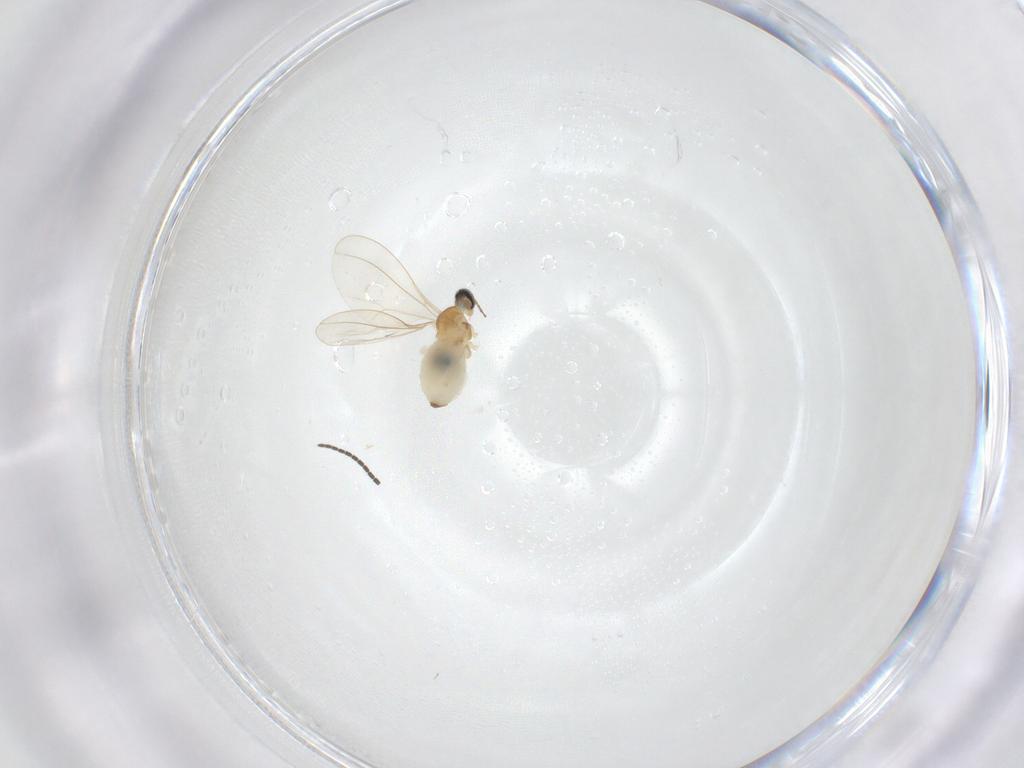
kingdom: Animalia
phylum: Arthropoda
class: Insecta
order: Diptera
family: Sciaridae
